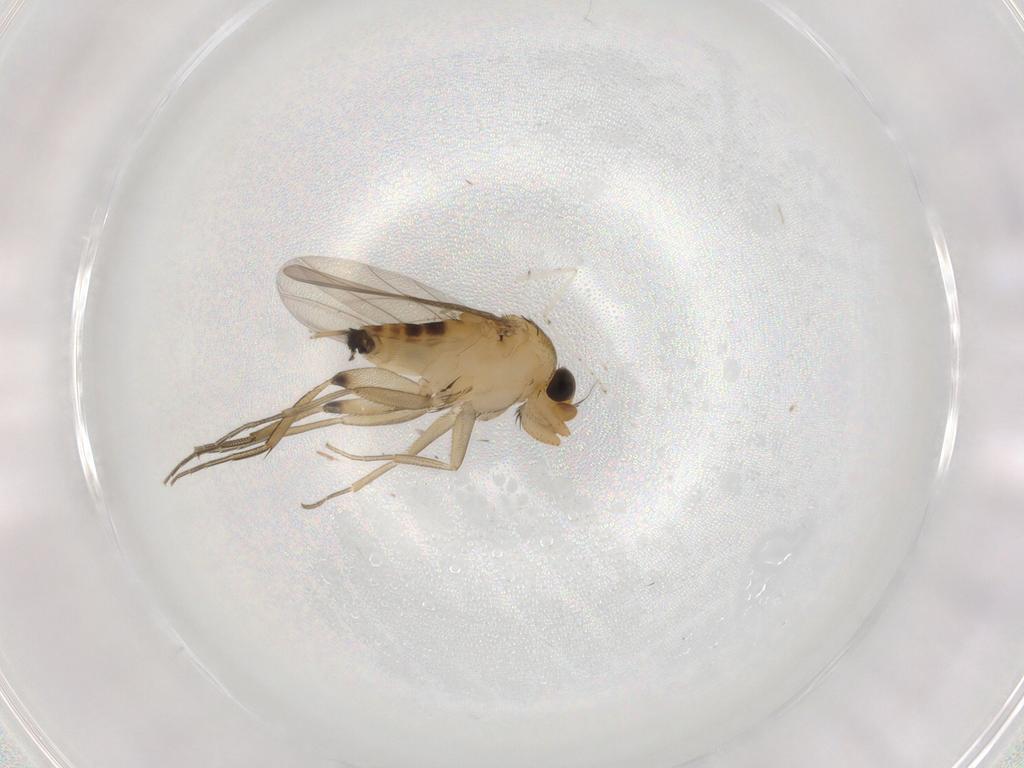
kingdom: Animalia
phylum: Arthropoda
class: Insecta
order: Diptera
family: Phoridae
